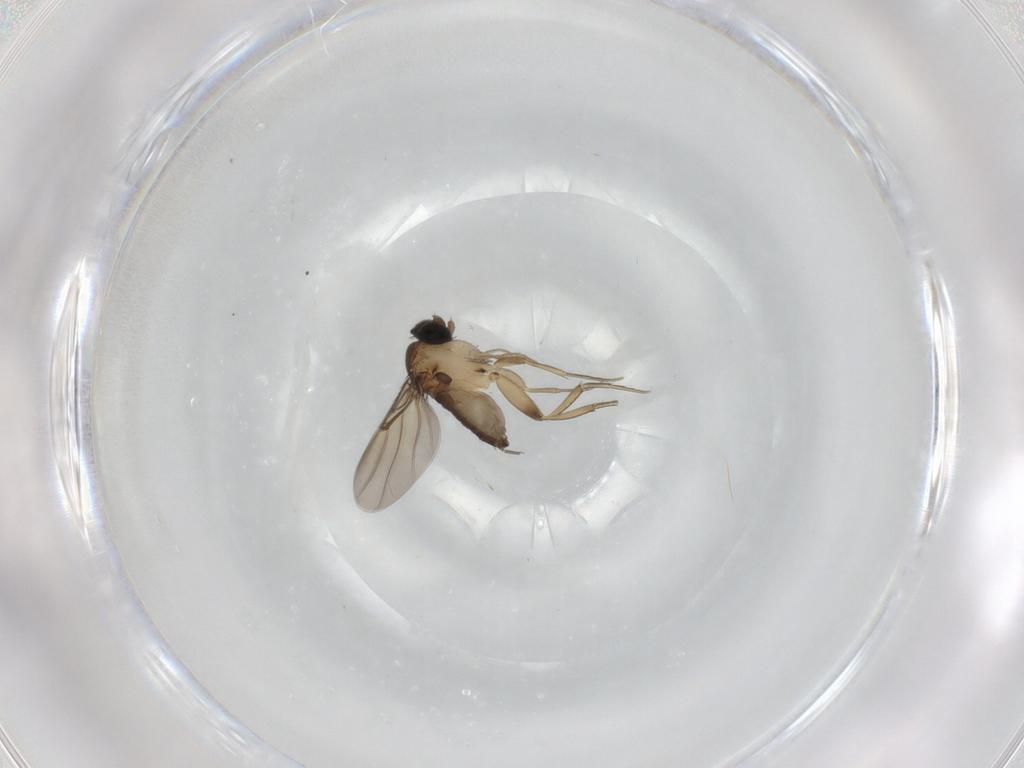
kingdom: Animalia
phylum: Arthropoda
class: Insecta
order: Diptera
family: Phoridae
